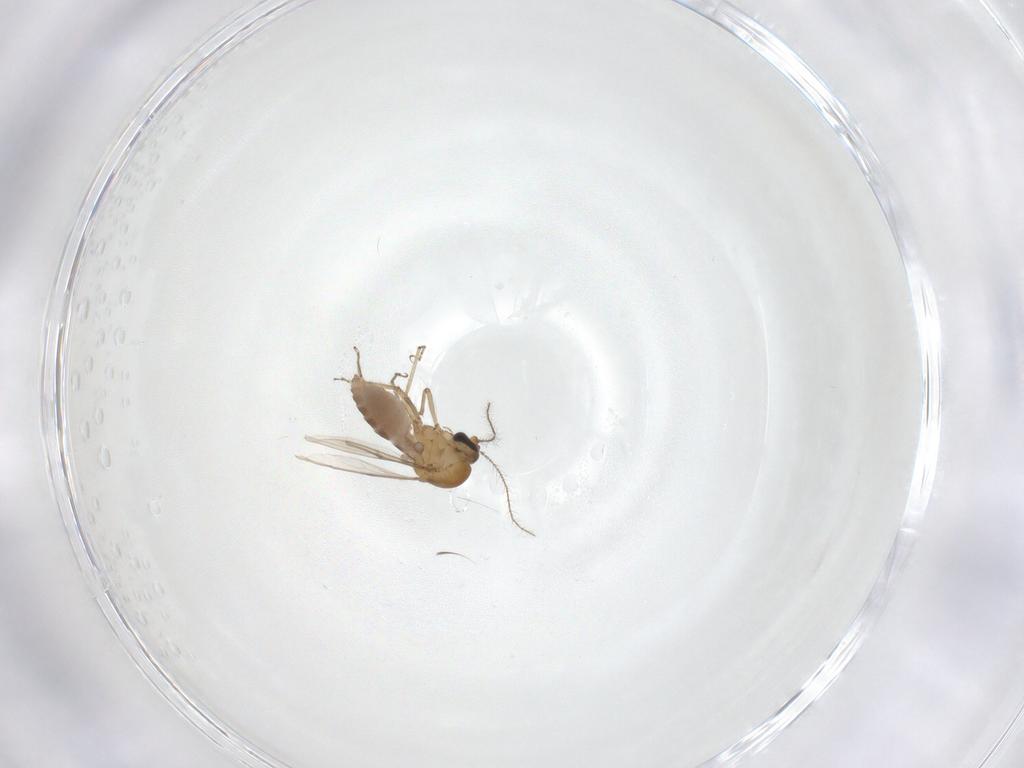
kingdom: Animalia
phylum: Arthropoda
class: Insecta
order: Diptera
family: Ceratopogonidae
